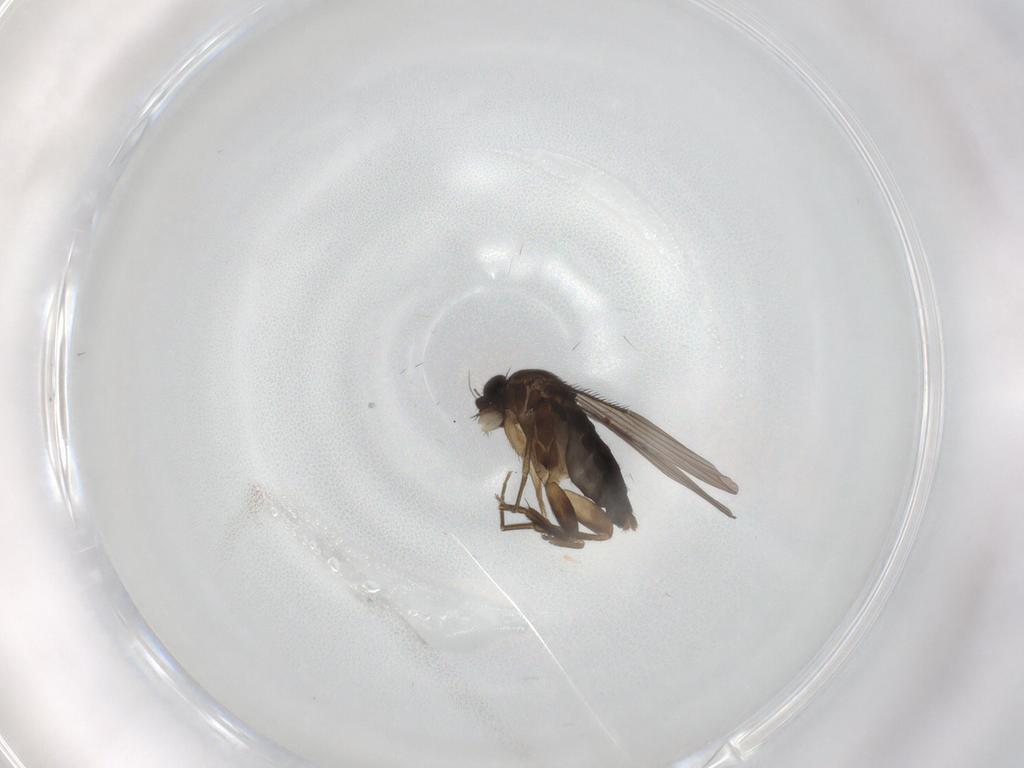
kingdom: Animalia
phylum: Arthropoda
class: Insecta
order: Diptera
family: Phoridae
